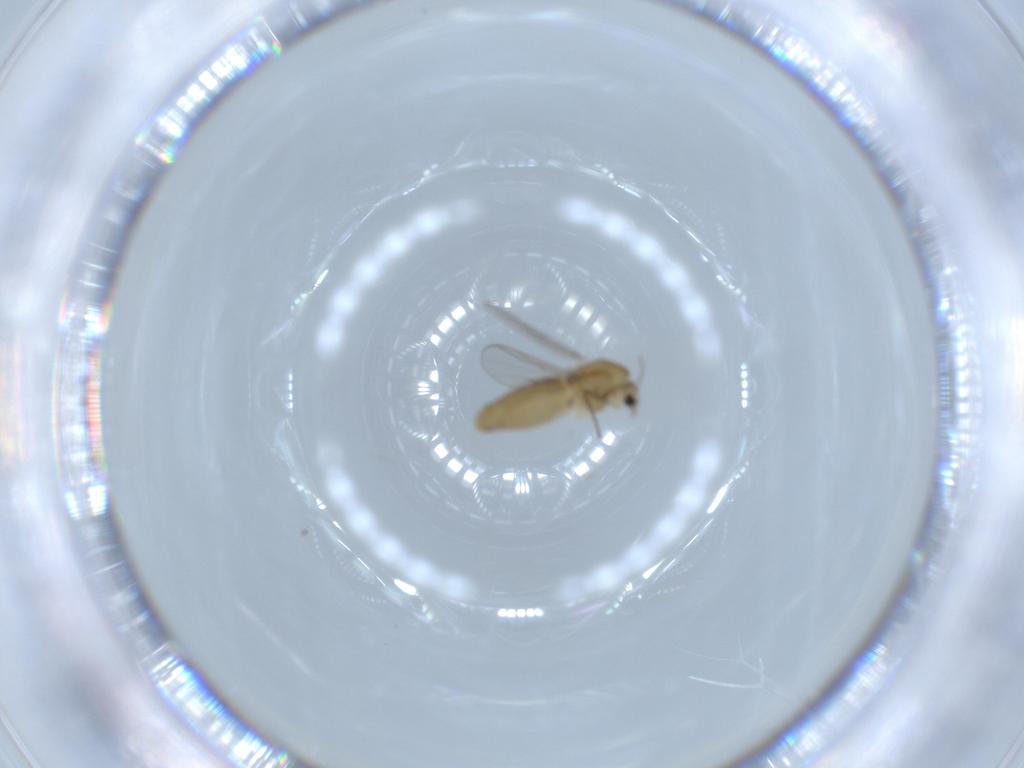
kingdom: Animalia
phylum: Arthropoda
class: Insecta
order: Diptera
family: Chironomidae
